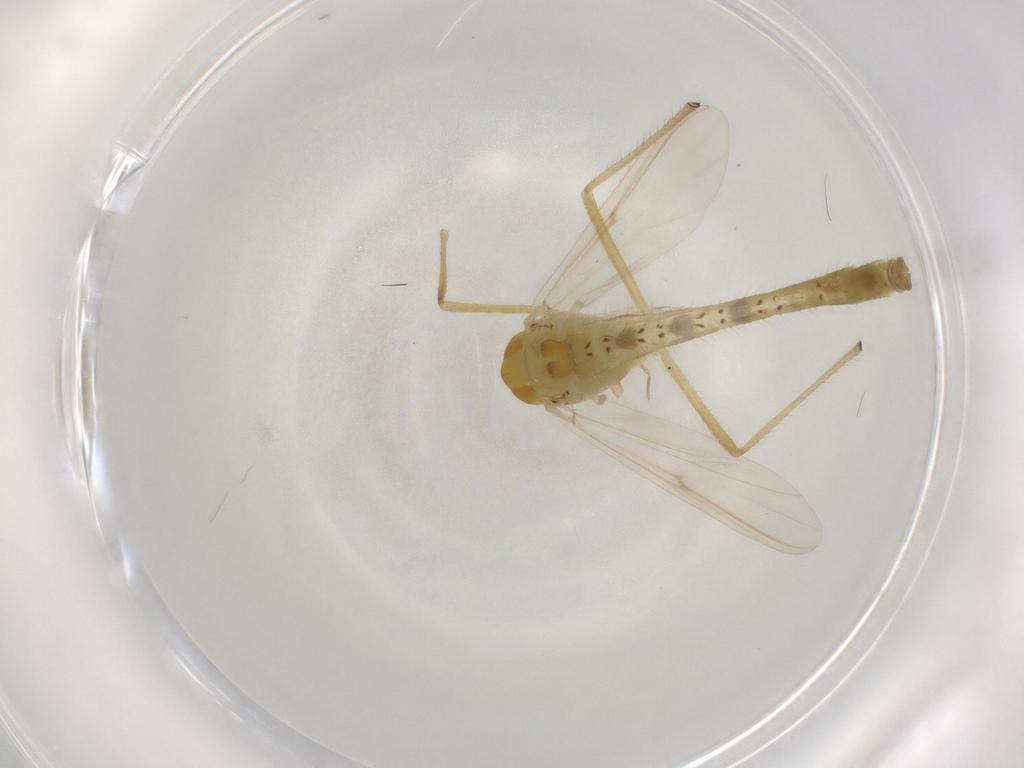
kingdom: Animalia
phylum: Arthropoda
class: Insecta
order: Diptera
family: Chironomidae
